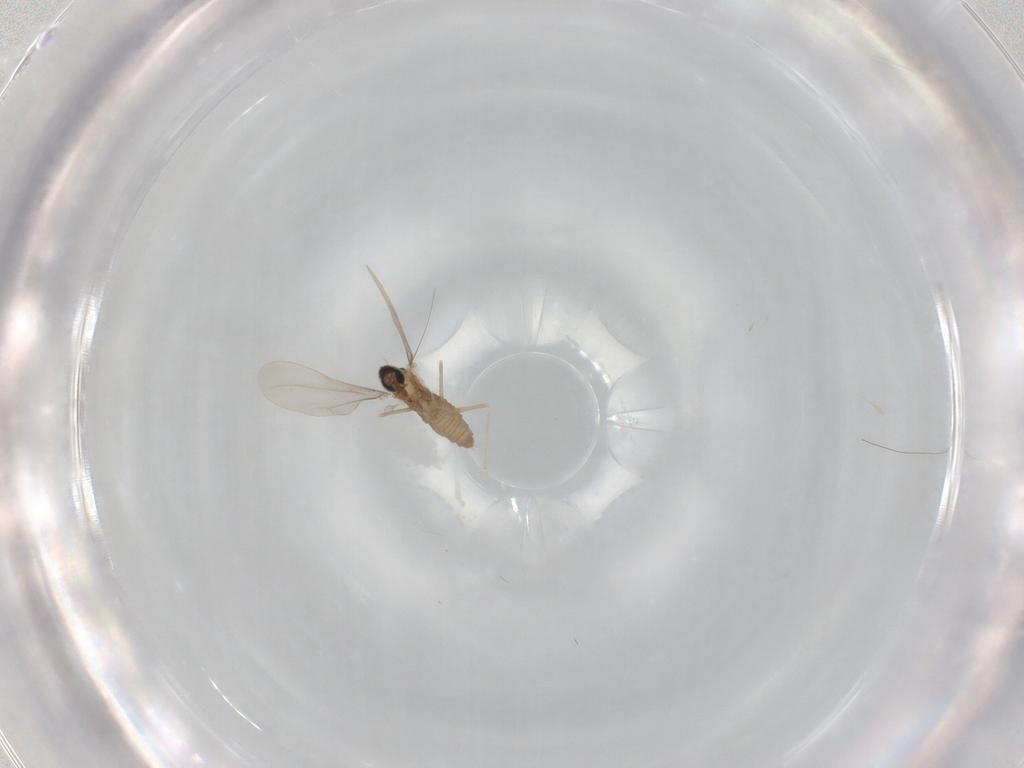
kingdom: Animalia
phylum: Arthropoda
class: Insecta
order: Diptera
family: Cecidomyiidae
